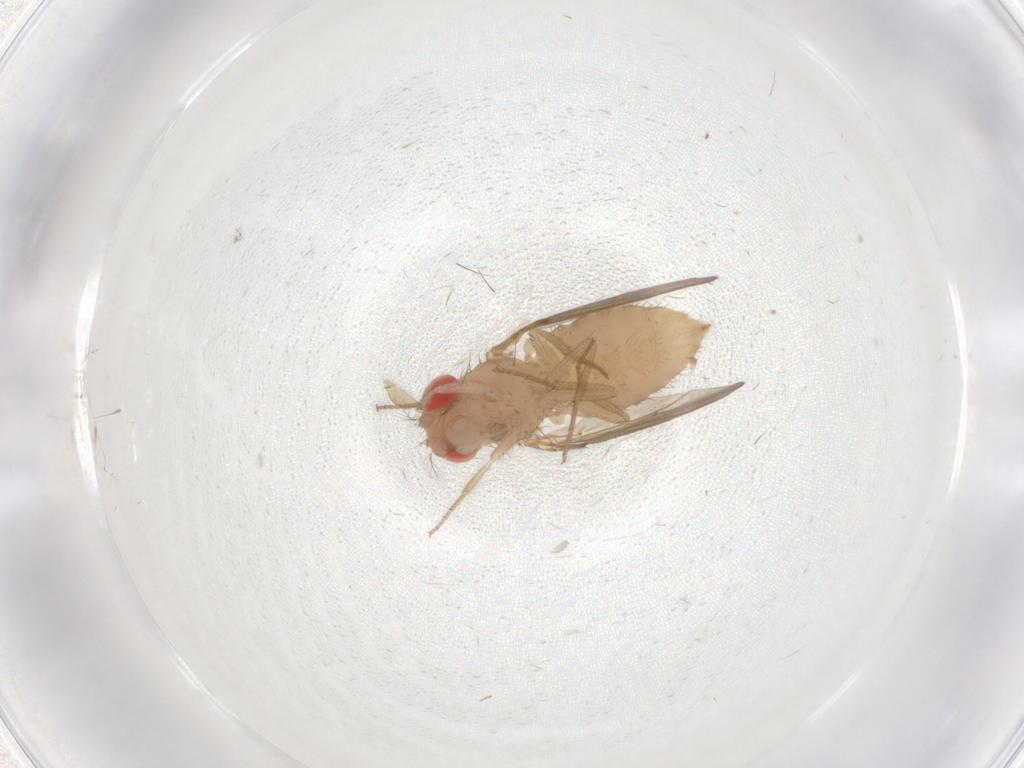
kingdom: Animalia
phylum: Arthropoda
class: Insecta
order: Diptera
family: Drosophilidae
